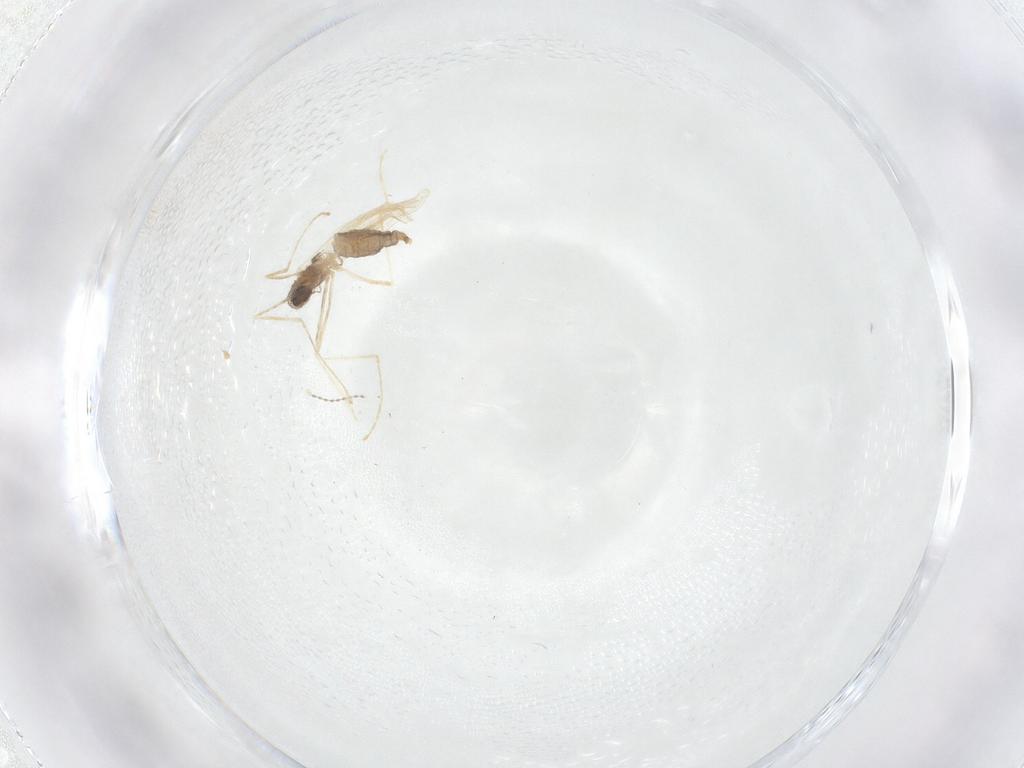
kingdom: Animalia
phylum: Arthropoda
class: Insecta
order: Diptera
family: Cecidomyiidae
